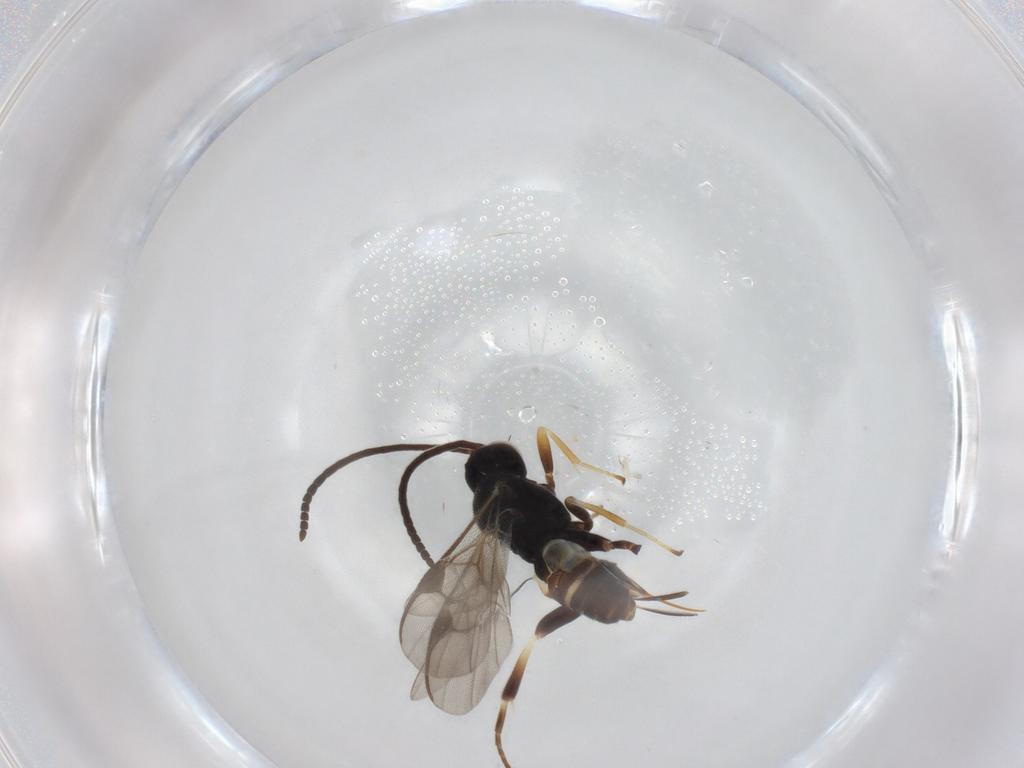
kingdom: Animalia
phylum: Arthropoda
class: Insecta
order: Hymenoptera
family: Braconidae
